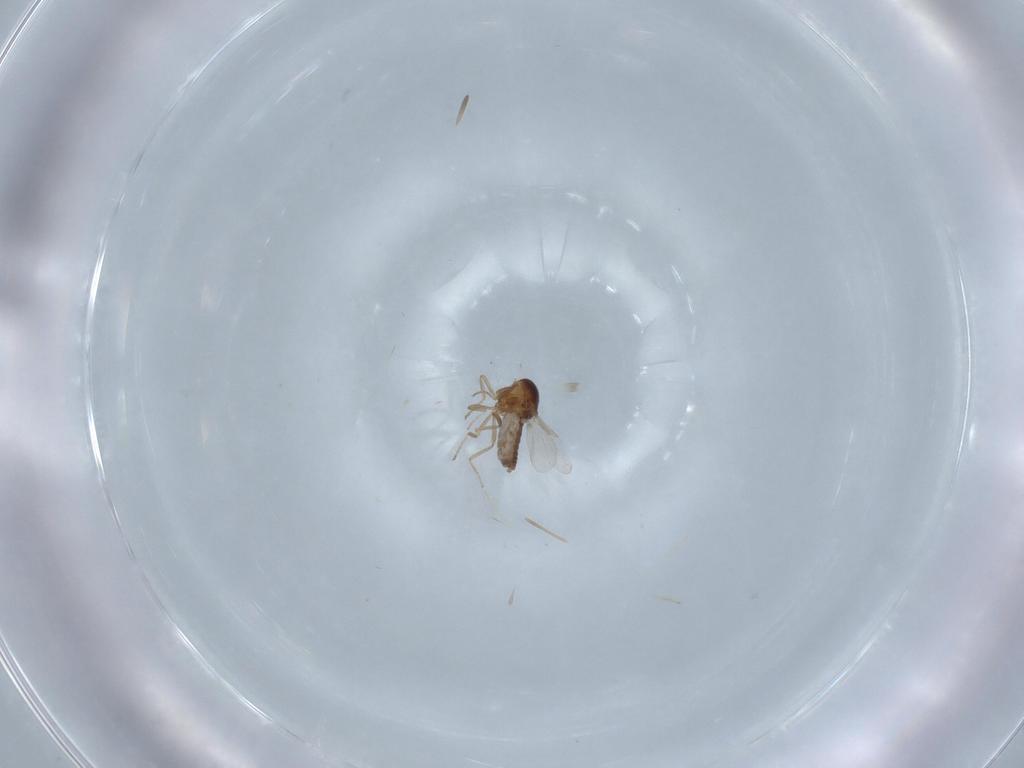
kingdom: Animalia
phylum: Arthropoda
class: Insecta
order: Diptera
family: Ceratopogonidae
